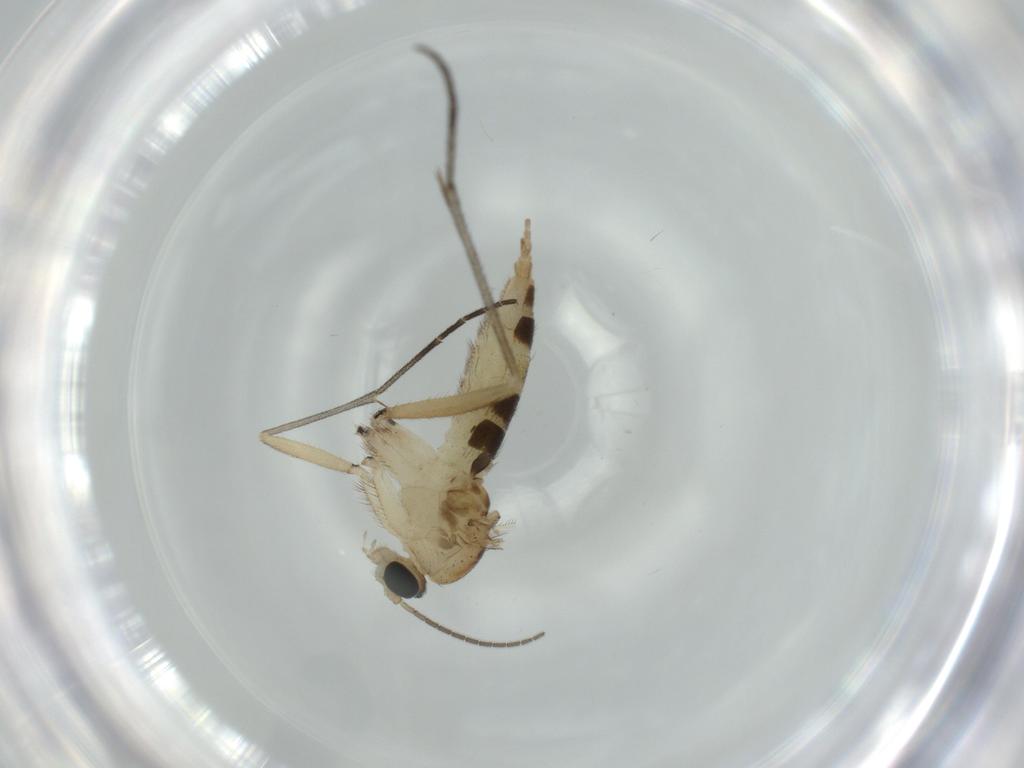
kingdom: Animalia
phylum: Arthropoda
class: Insecta
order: Diptera
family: Sciaridae
